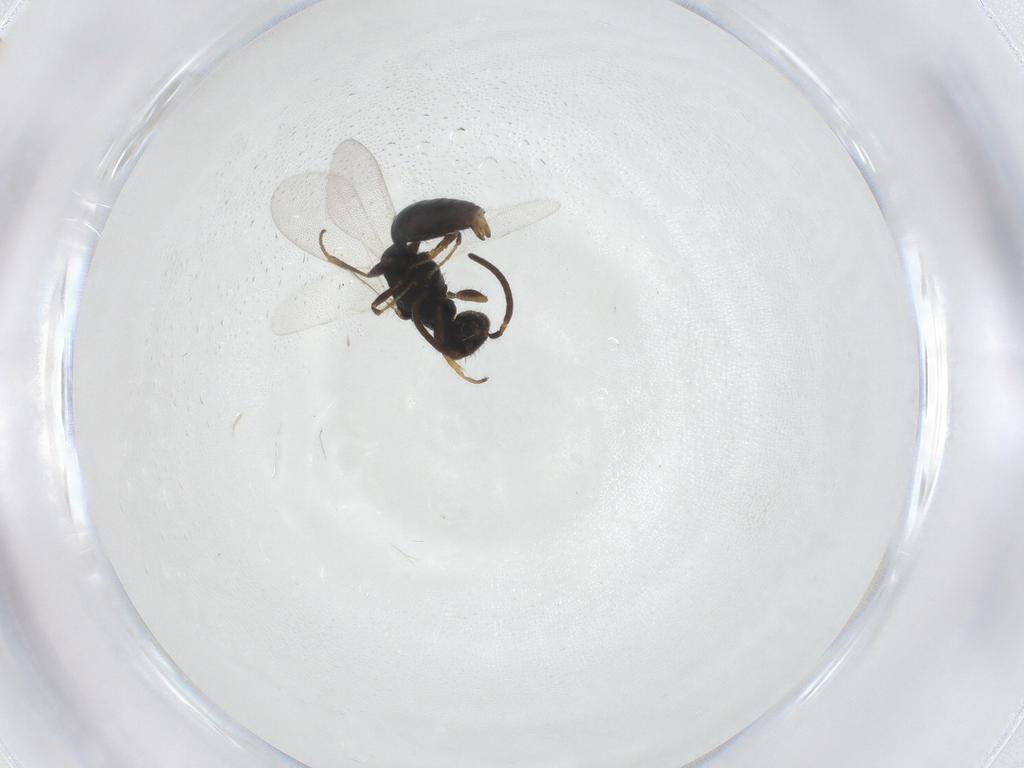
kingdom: Animalia
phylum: Arthropoda
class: Insecta
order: Hymenoptera
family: Bethylidae
